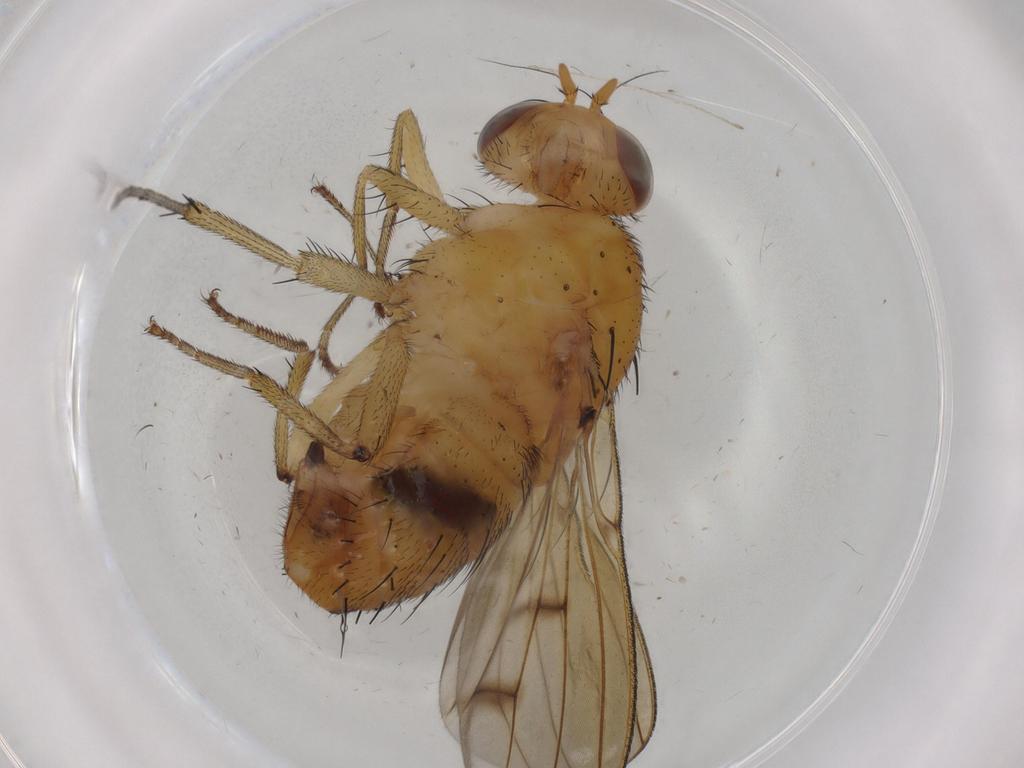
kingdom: Animalia
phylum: Arthropoda
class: Insecta
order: Diptera
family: Cecidomyiidae
